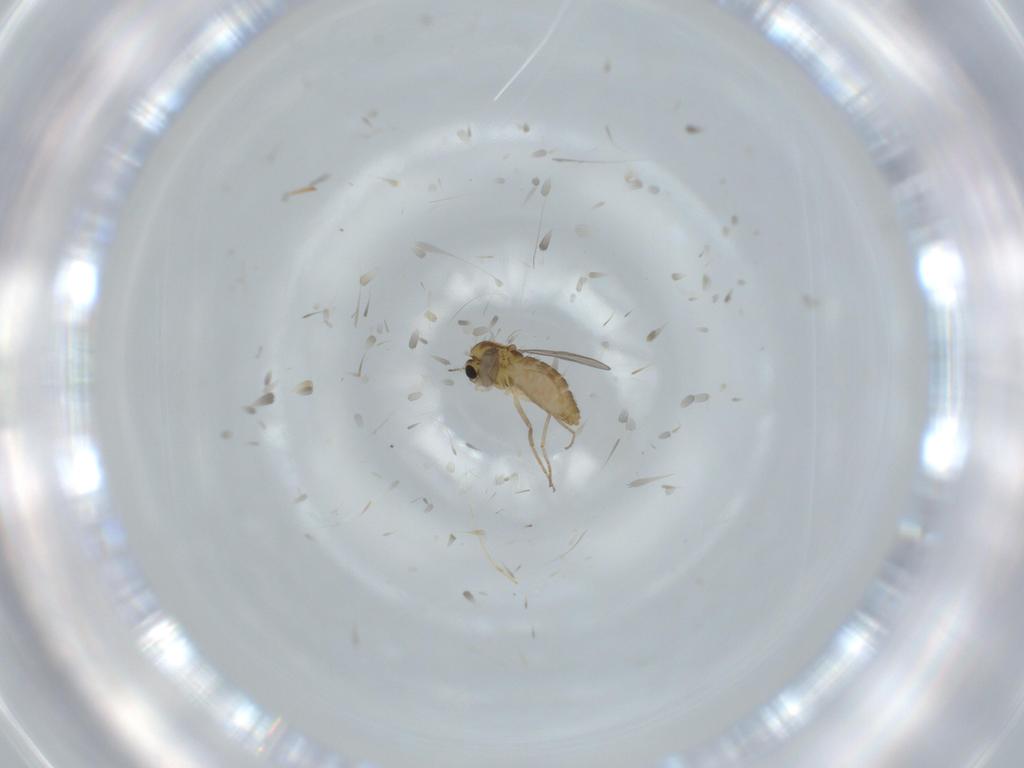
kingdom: Animalia
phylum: Arthropoda
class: Insecta
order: Diptera
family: Chironomidae
